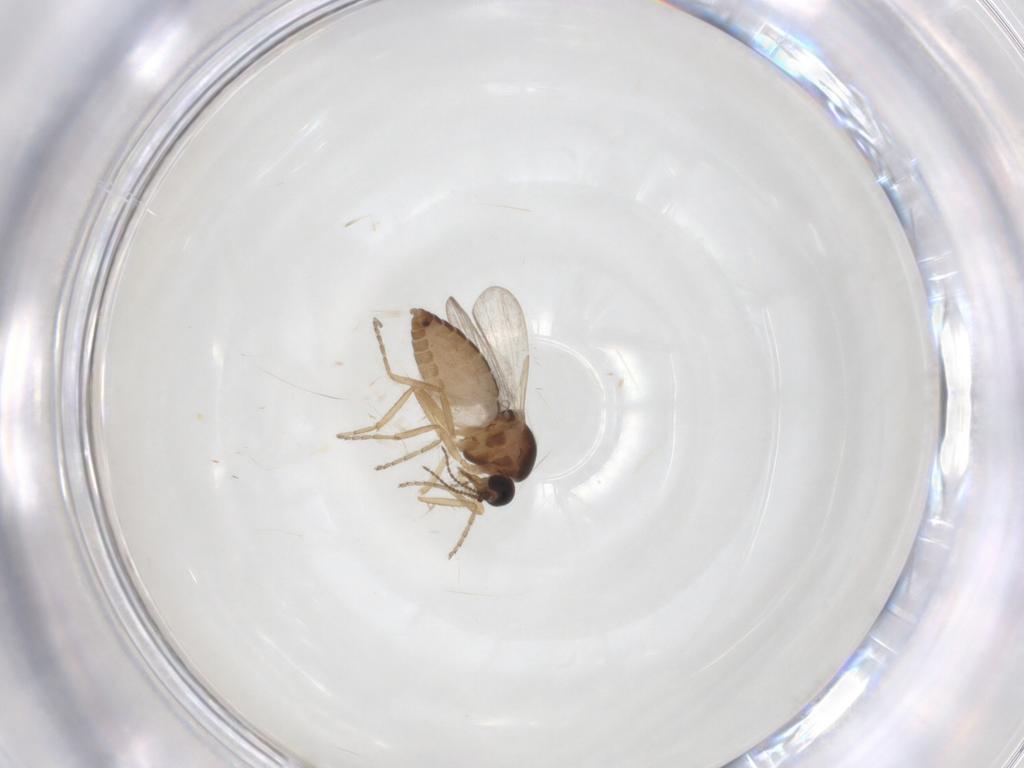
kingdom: Animalia
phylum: Arthropoda
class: Insecta
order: Diptera
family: Ceratopogonidae
